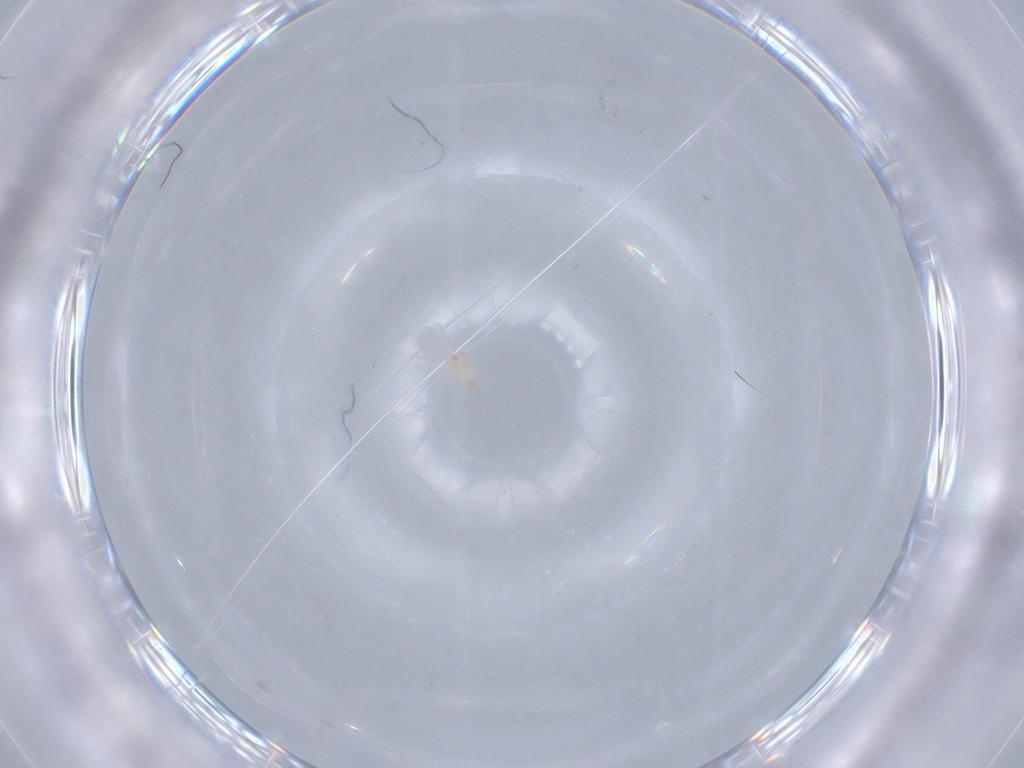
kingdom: Animalia
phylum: Arthropoda
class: Arachnida
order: Mesostigmata
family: Digamasellidae
